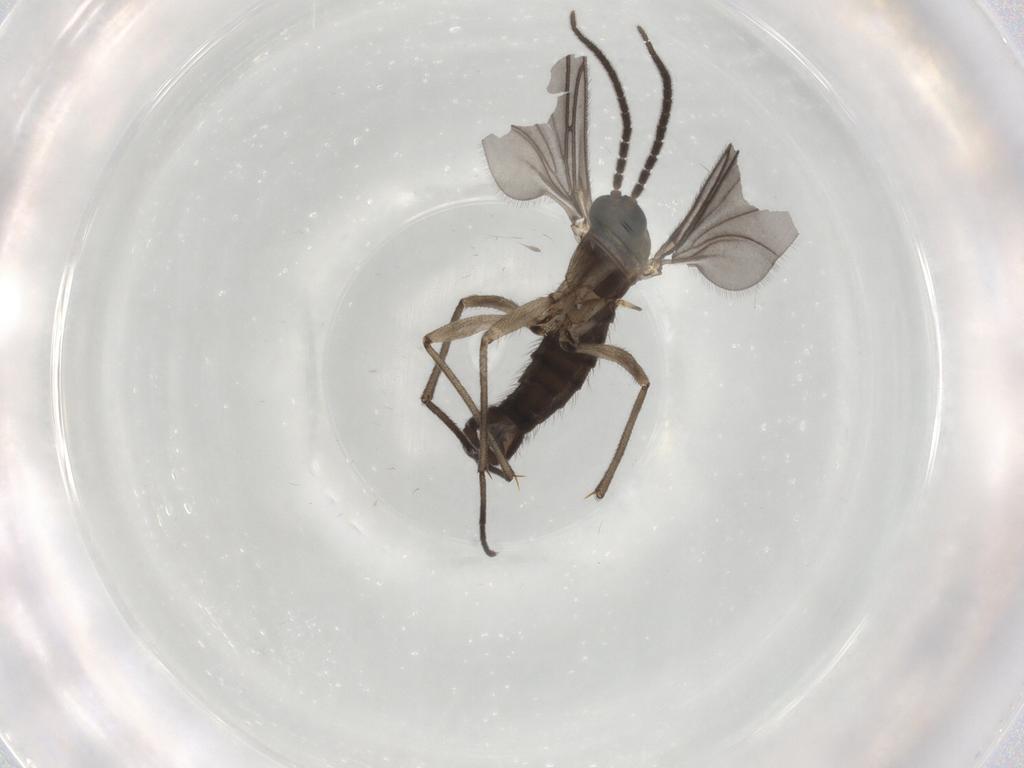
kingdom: Animalia
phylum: Arthropoda
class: Insecta
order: Diptera
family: Sciaridae
